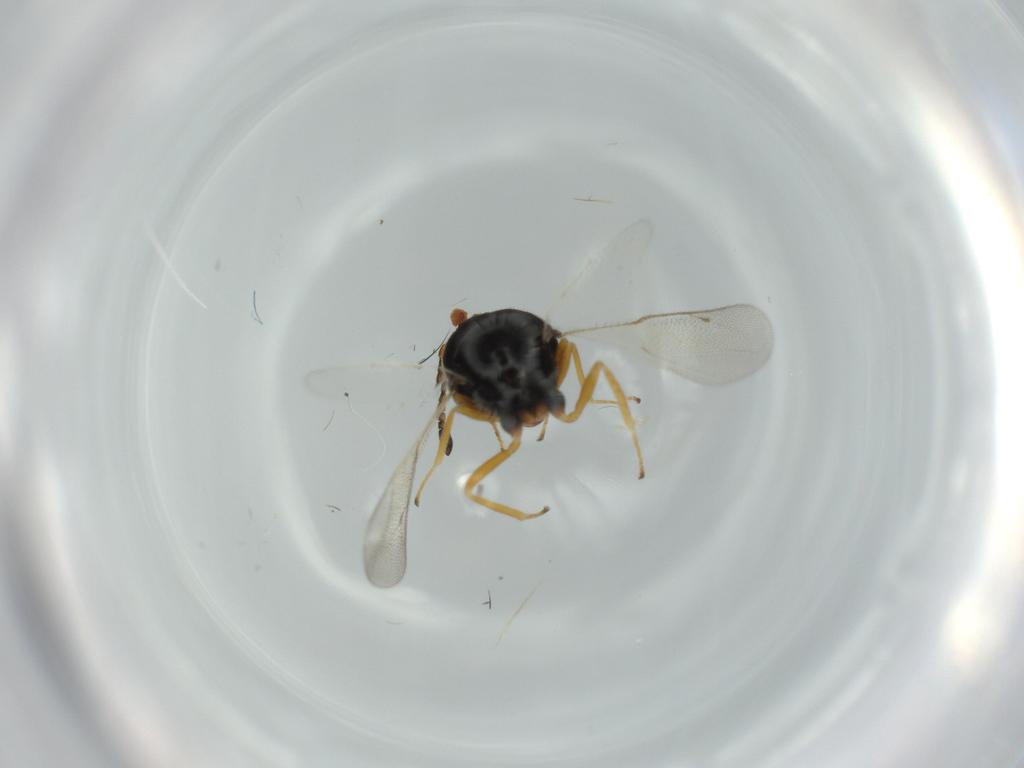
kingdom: Animalia
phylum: Arthropoda
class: Insecta
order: Hymenoptera
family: Pteromalidae
